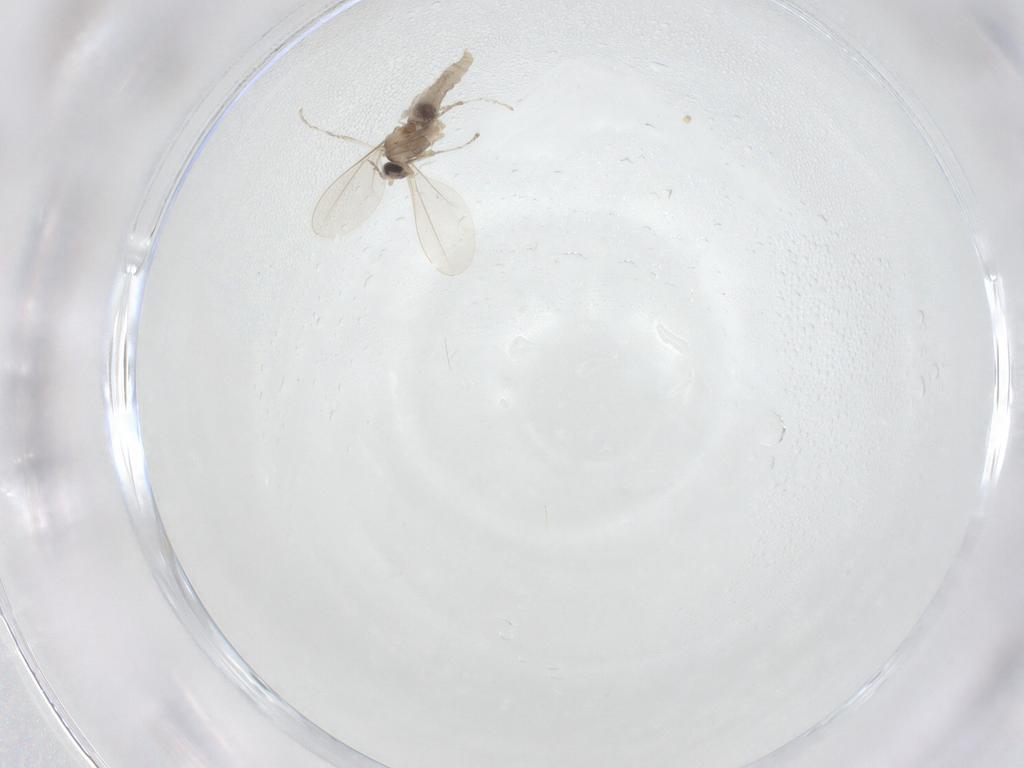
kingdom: Animalia
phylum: Arthropoda
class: Insecta
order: Diptera
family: Cecidomyiidae
